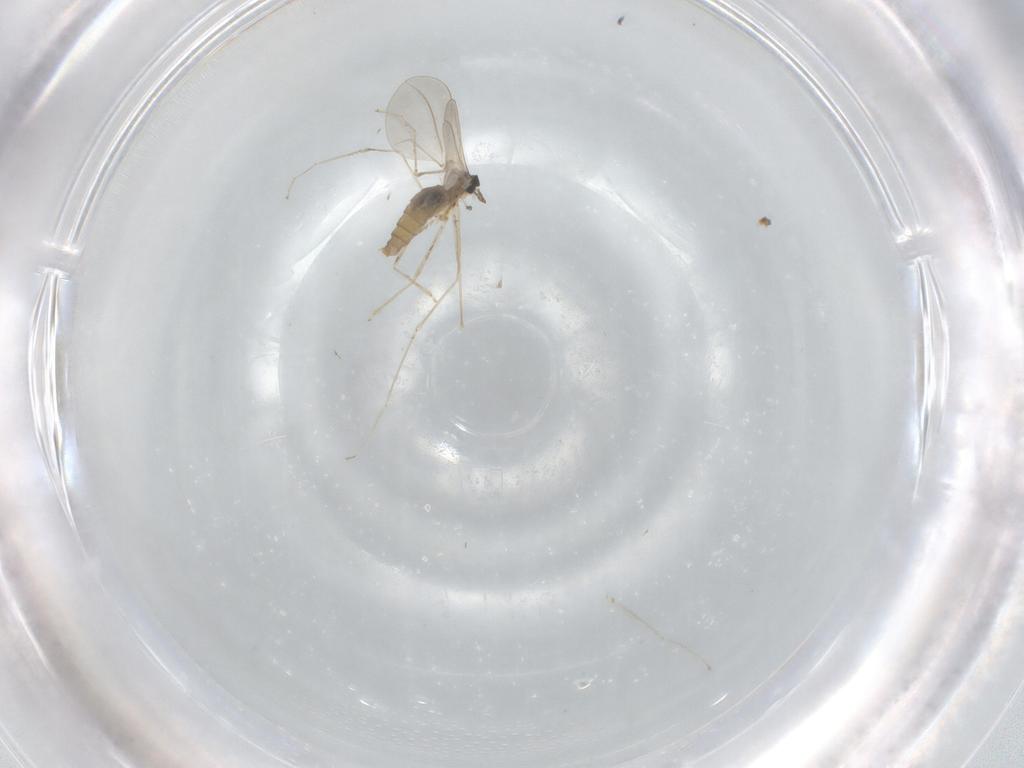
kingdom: Animalia
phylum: Arthropoda
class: Insecta
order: Diptera
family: Cecidomyiidae
